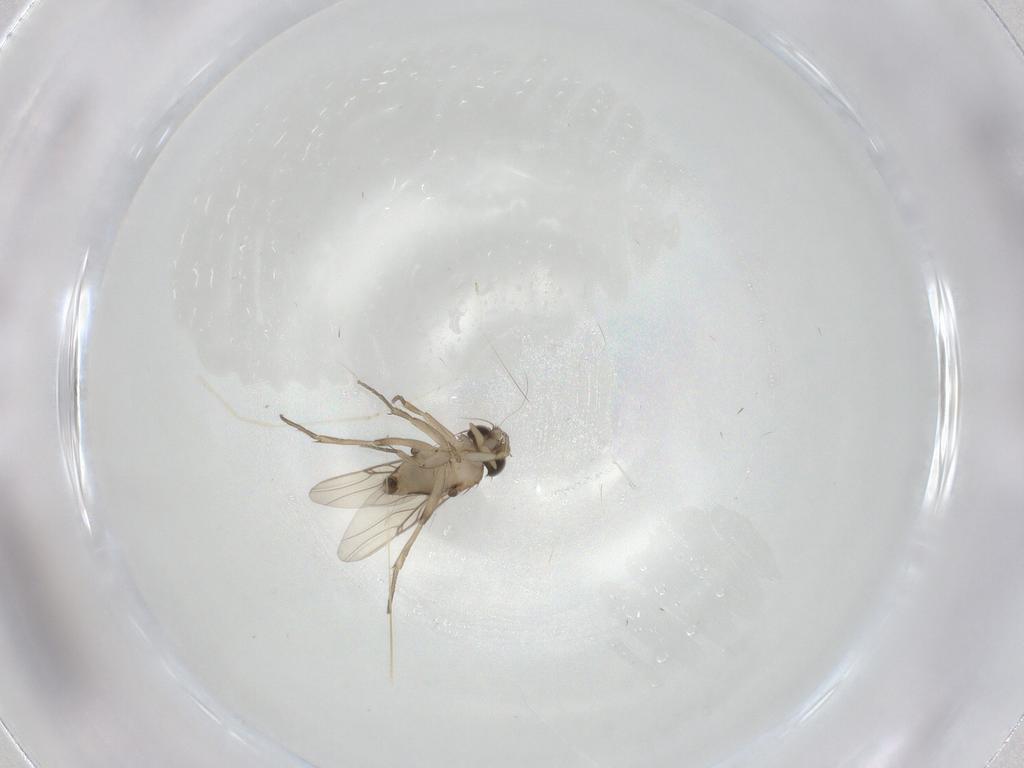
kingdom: Animalia
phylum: Arthropoda
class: Insecta
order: Diptera
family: Phoridae
